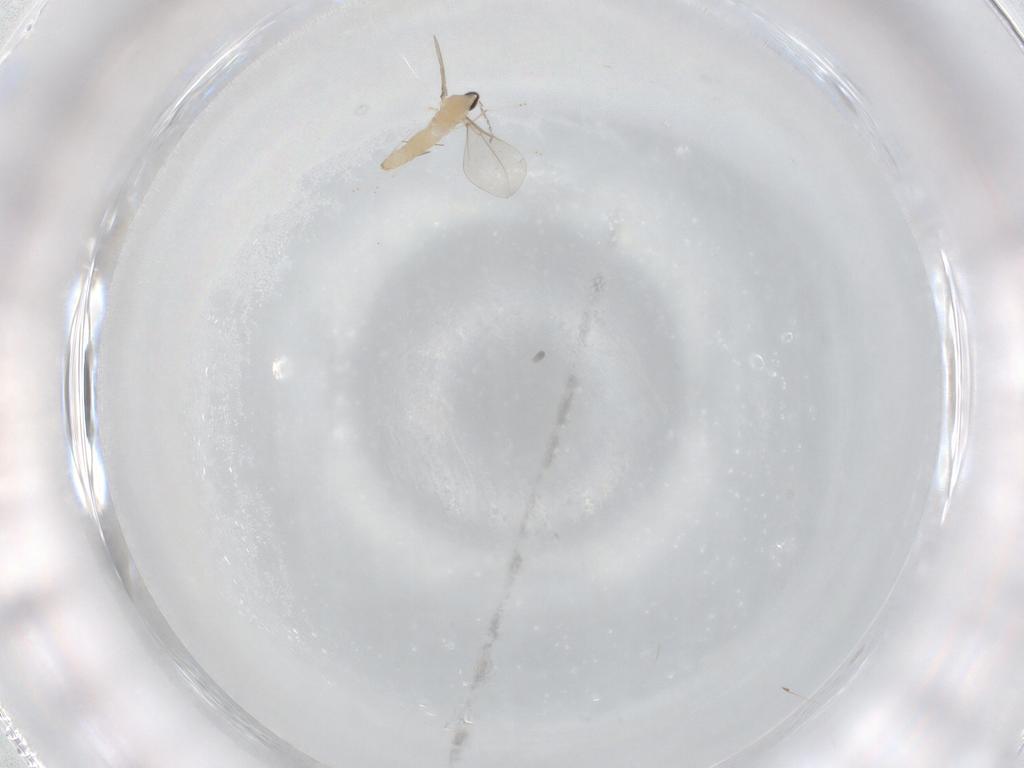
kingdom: Animalia
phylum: Arthropoda
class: Insecta
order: Diptera
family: Cecidomyiidae
